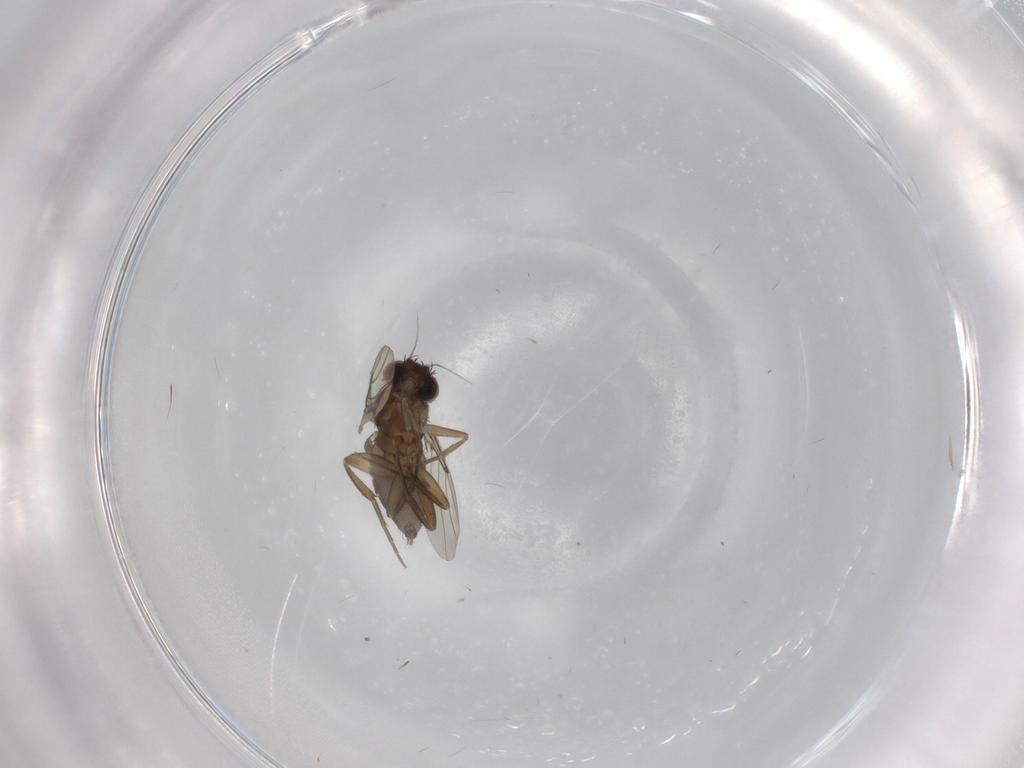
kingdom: Animalia
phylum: Arthropoda
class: Insecta
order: Diptera
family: Phoridae
